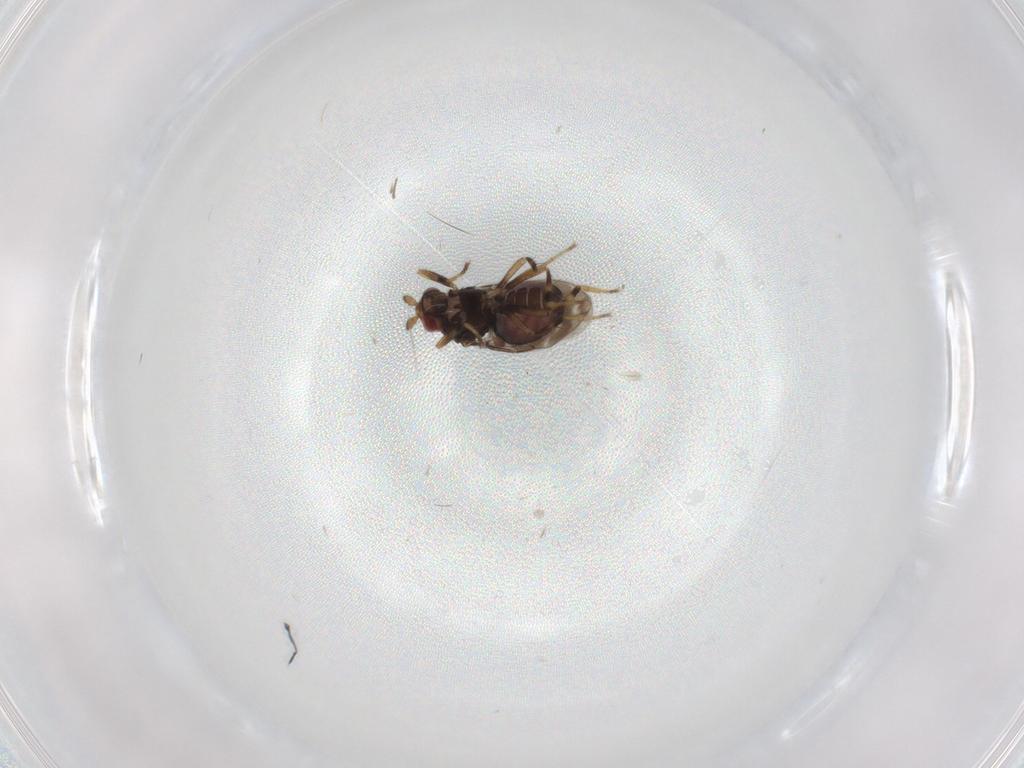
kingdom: Animalia
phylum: Arthropoda
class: Insecta
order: Diptera
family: Sphaeroceridae
